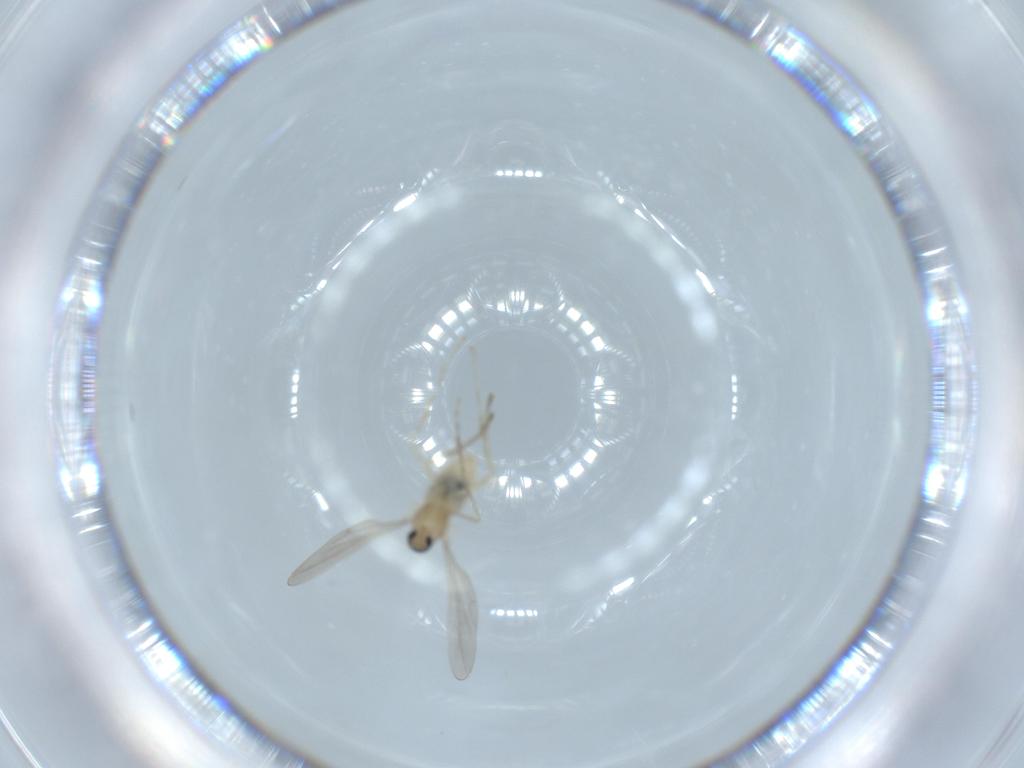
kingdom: Animalia
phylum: Arthropoda
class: Insecta
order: Diptera
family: Cecidomyiidae
